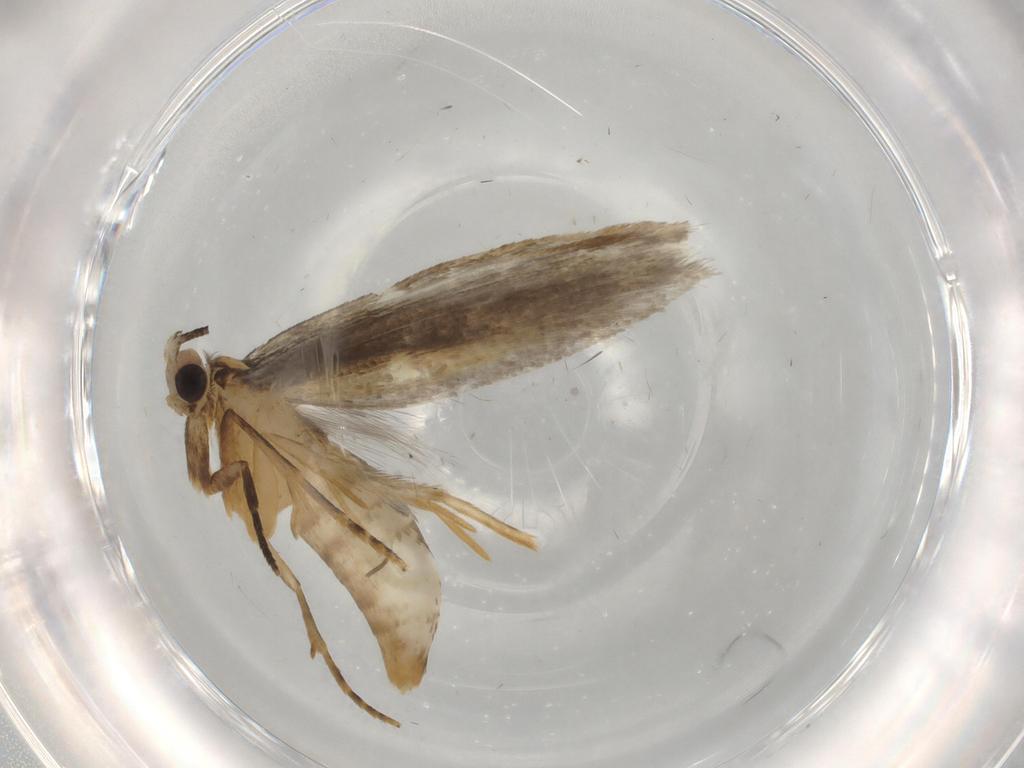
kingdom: Animalia
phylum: Arthropoda
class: Insecta
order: Lepidoptera
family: Tineidae
